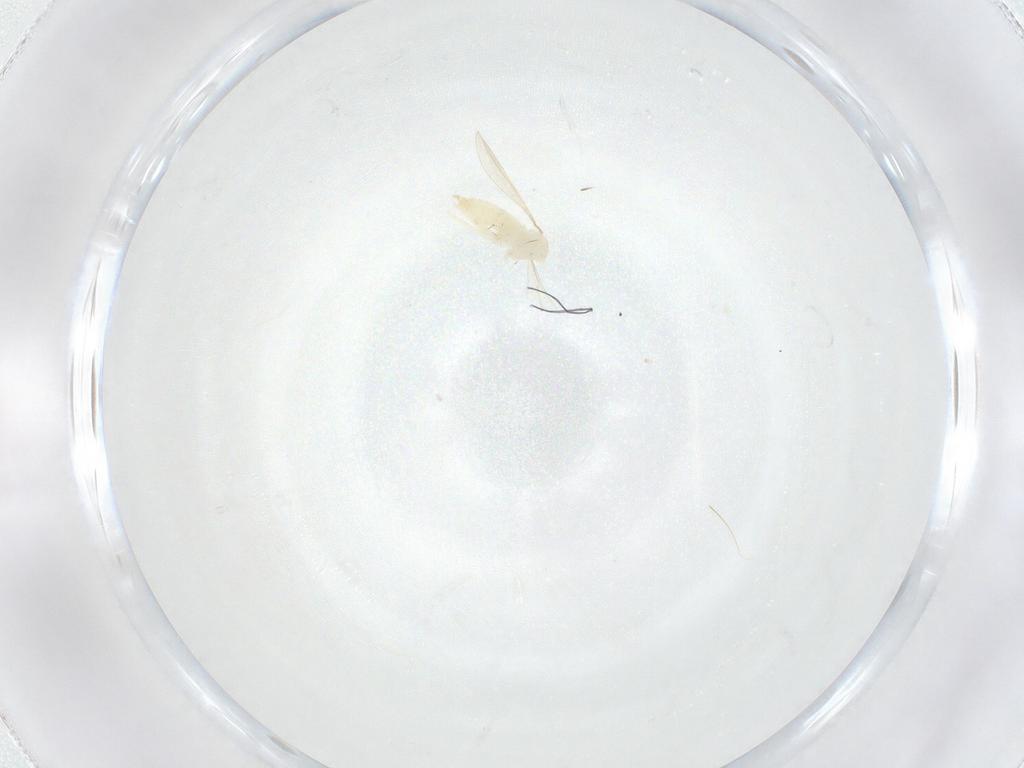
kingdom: Animalia
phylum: Arthropoda
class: Insecta
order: Diptera
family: Cecidomyiidae
